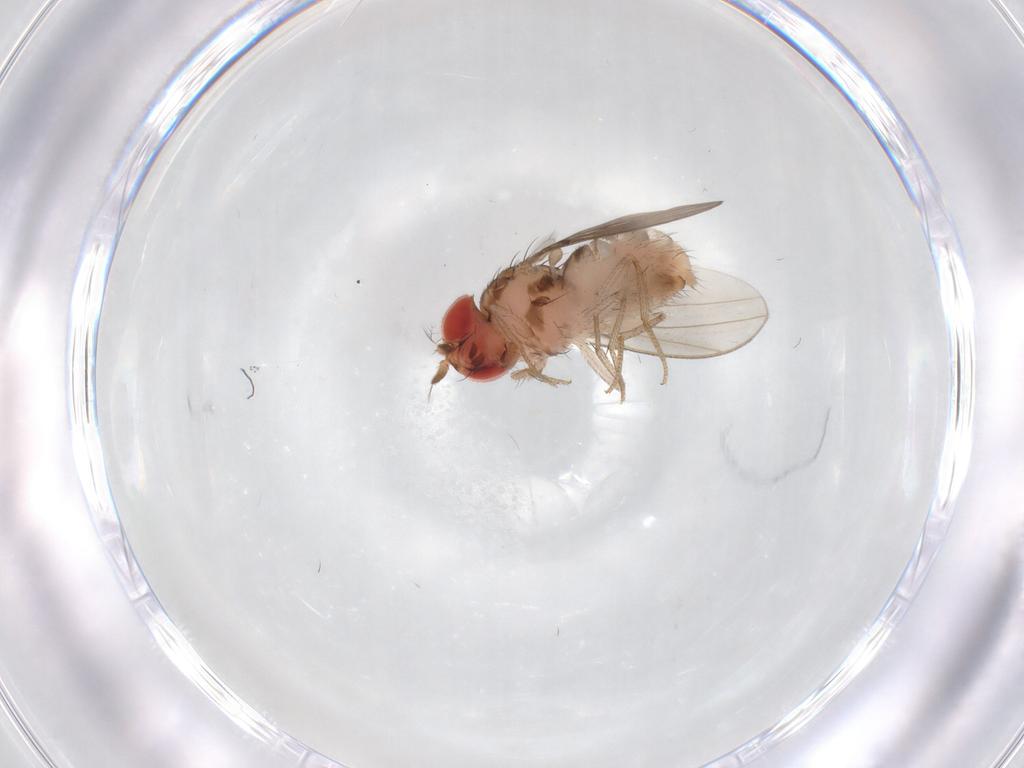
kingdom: Animalia
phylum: Arthropoda
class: Insecta
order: Diptera
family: Drosophilidae
